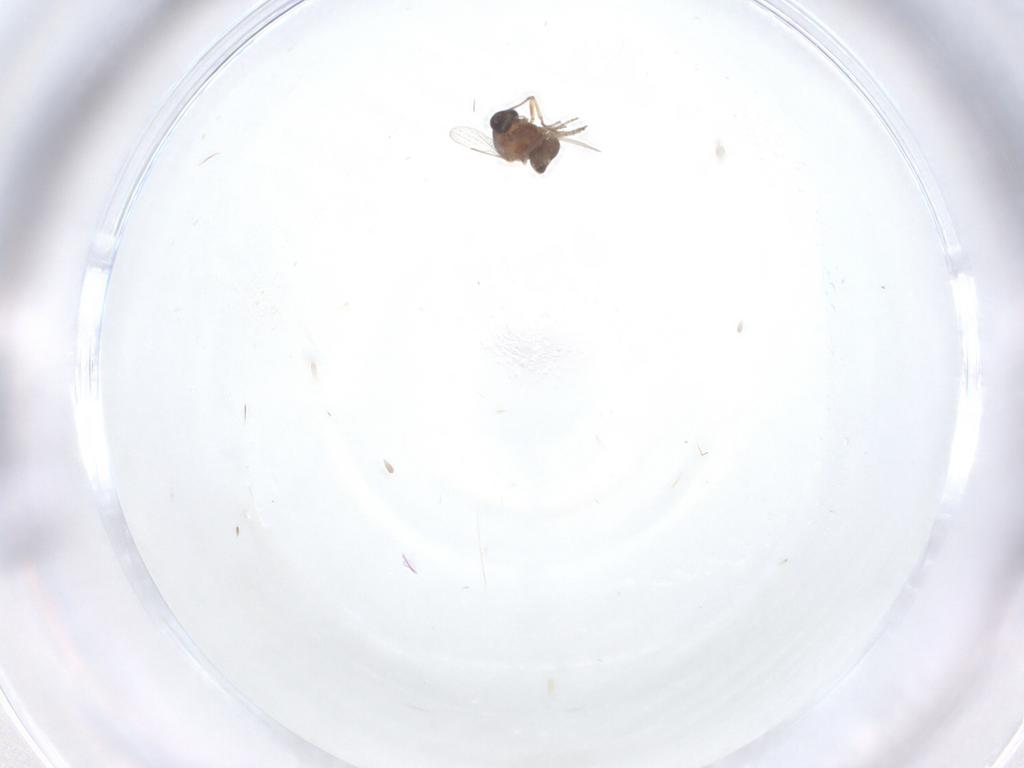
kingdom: Animalia
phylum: Arthropoda
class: Insecta
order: Diptera
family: Ceratopogonidae
